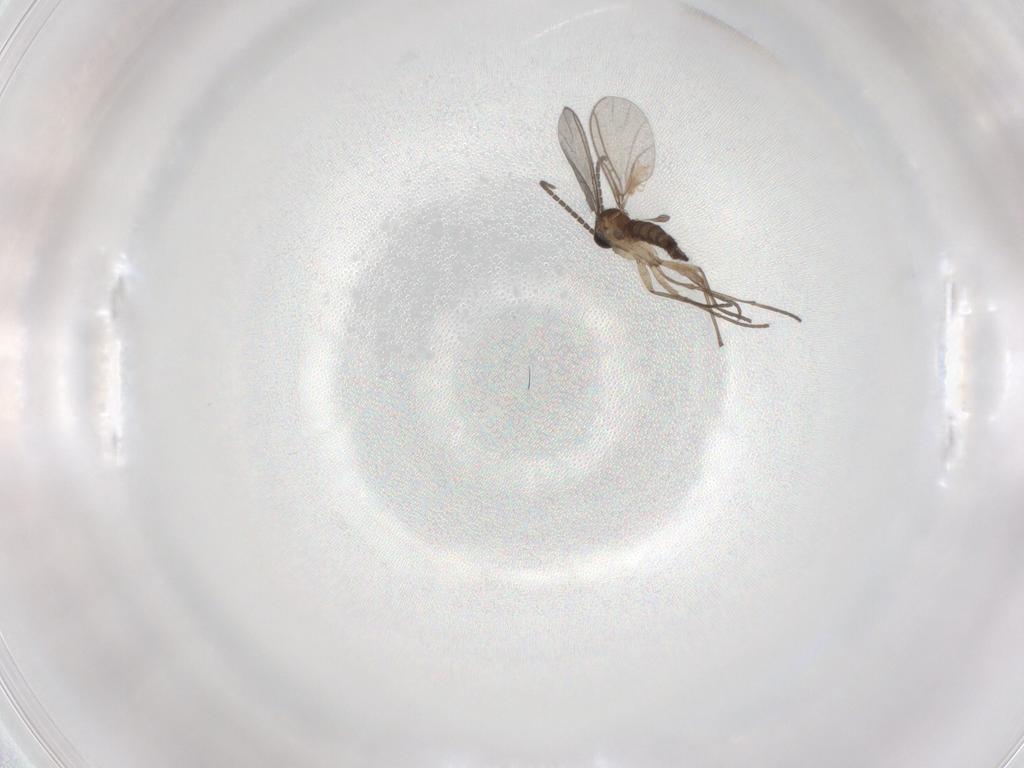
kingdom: Animalia
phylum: Arthropoda
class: Insecta
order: Diptera
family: Sciaridae
